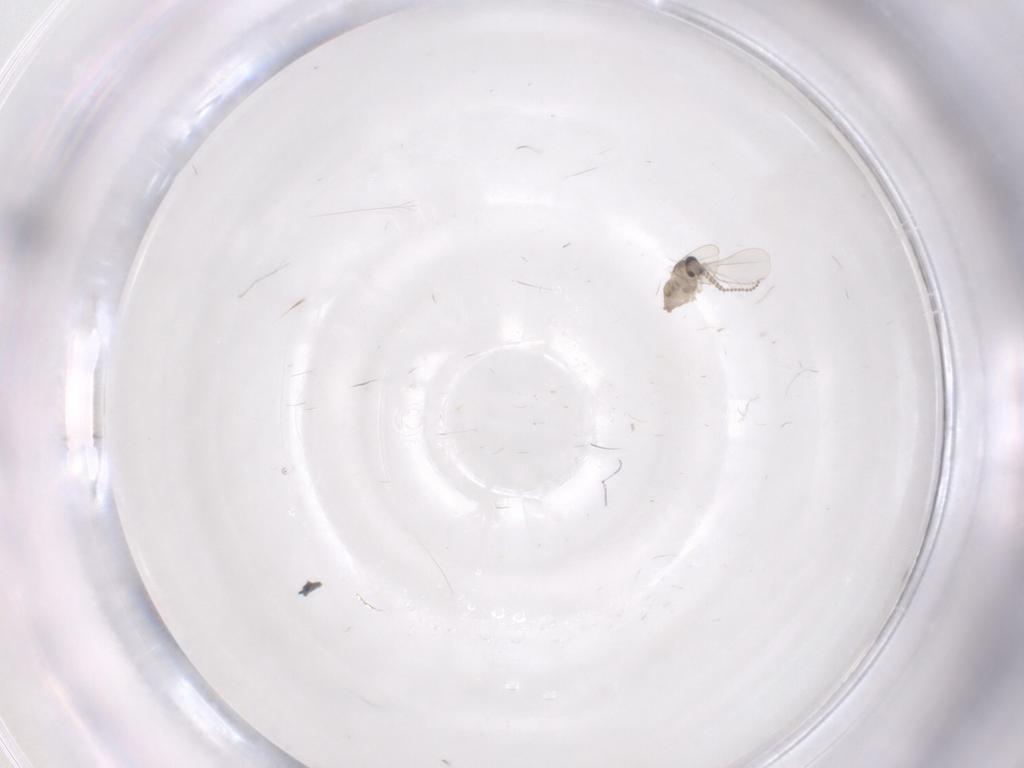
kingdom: Animalia
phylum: Arthropoda
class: Insecta
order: Diptera
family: Cecidomyiidae
